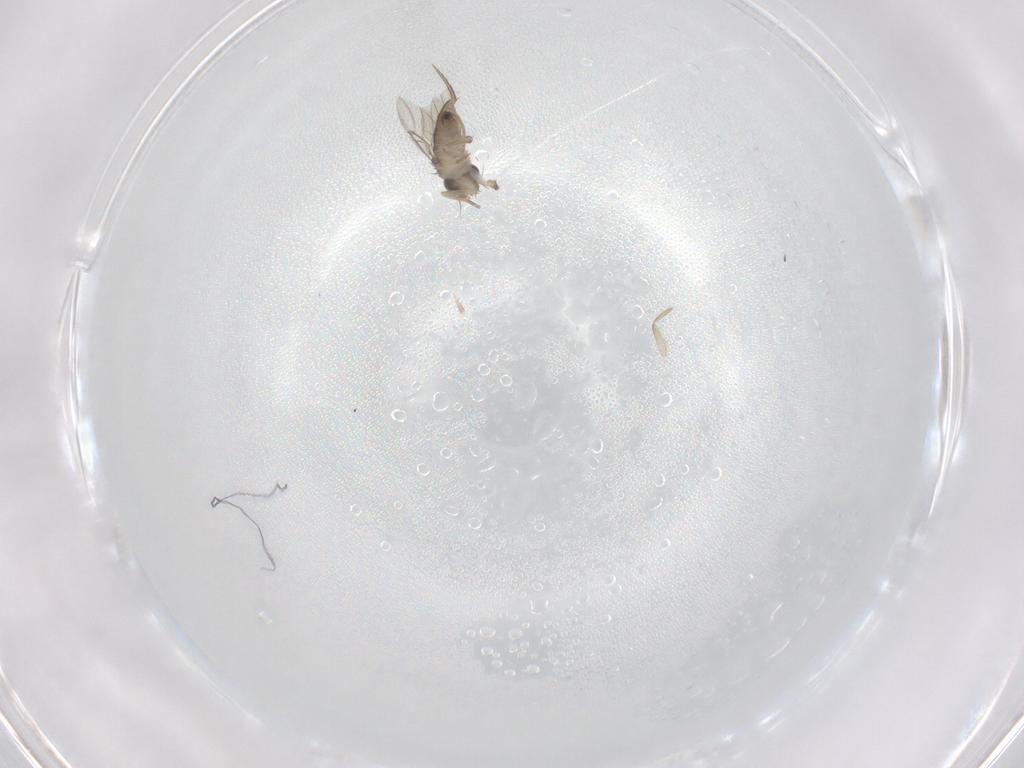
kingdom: Animalia
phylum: Arthropoda
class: Insecta
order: Diptera
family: Phoridae
